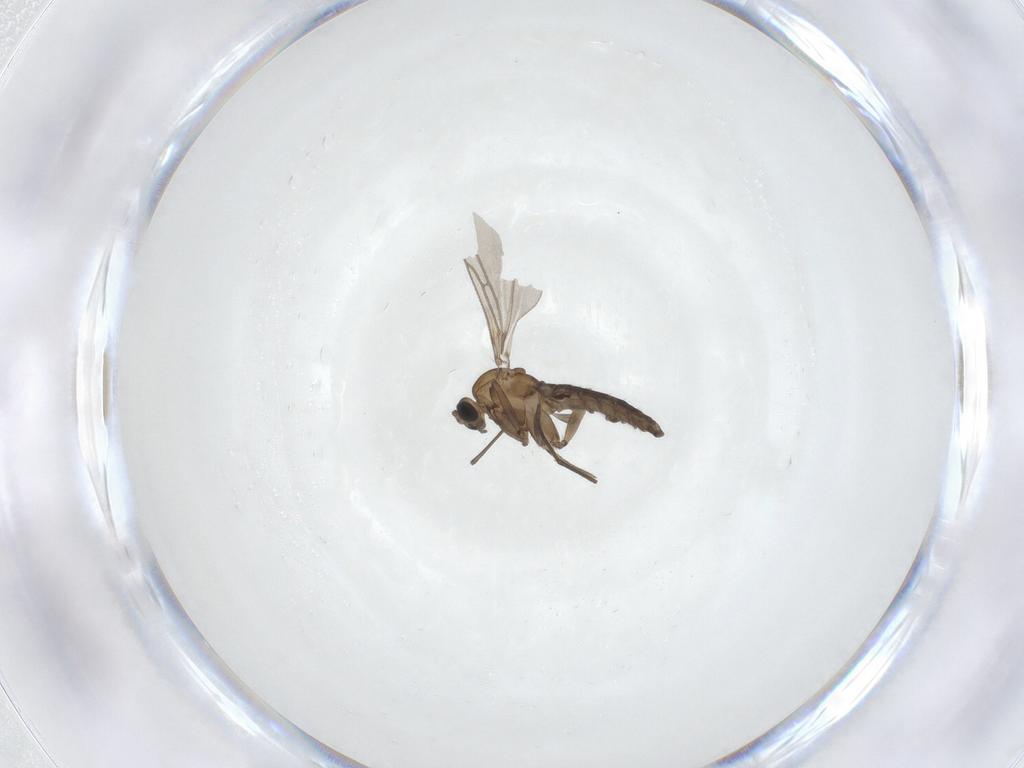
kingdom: Animalia
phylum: Arthropoda
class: Insecta
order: Diptera
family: Sciaridae
